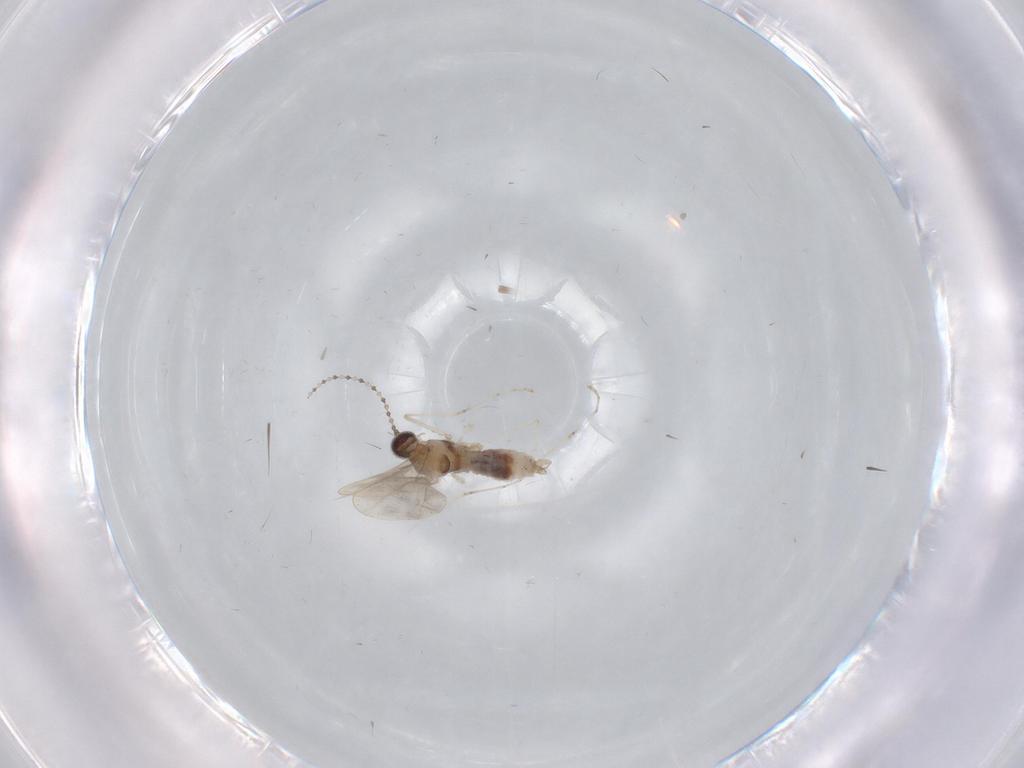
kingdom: Animalia
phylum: Arthropoda
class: Insecta
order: Diptera
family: Cecidomyiidae
